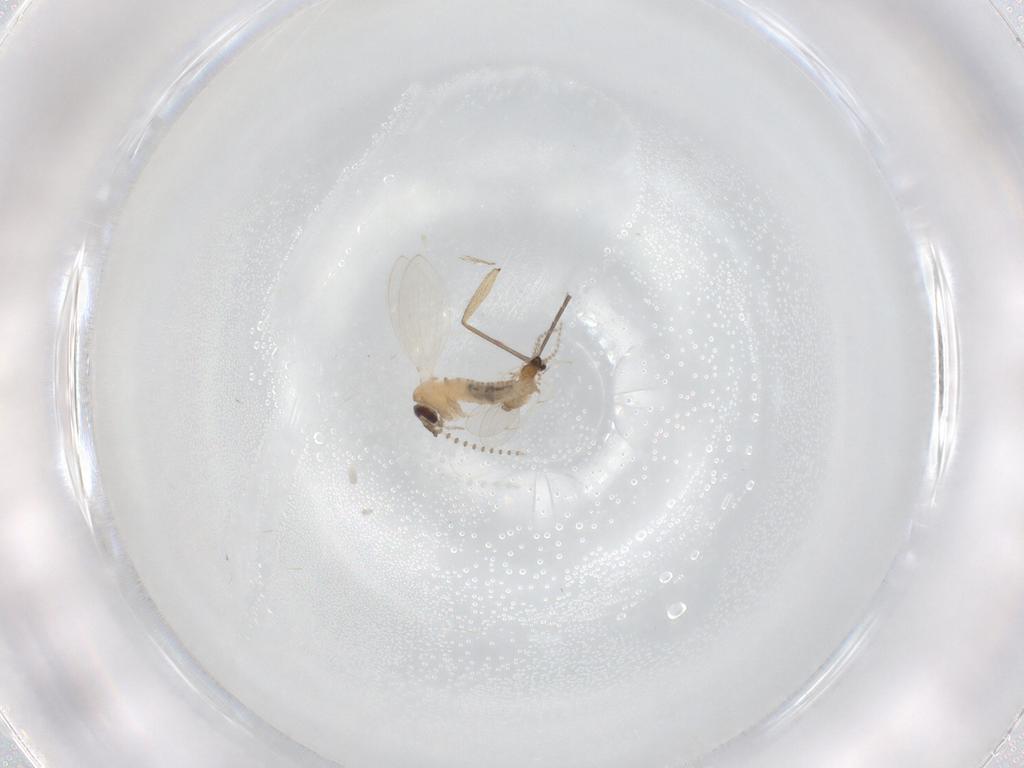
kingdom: Animalia
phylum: Arthropoda
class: Insecta
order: Diptera
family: Psychodidae
